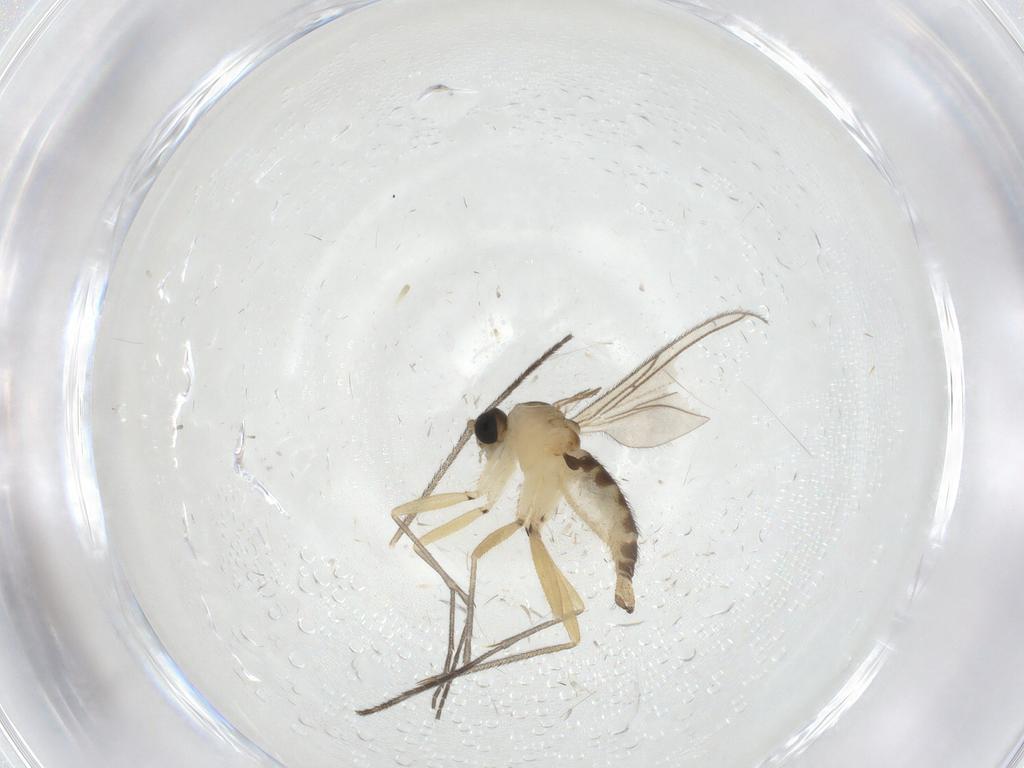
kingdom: Animalia
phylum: Arthropoda
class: Insecta
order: Diptera
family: Sciaridae
